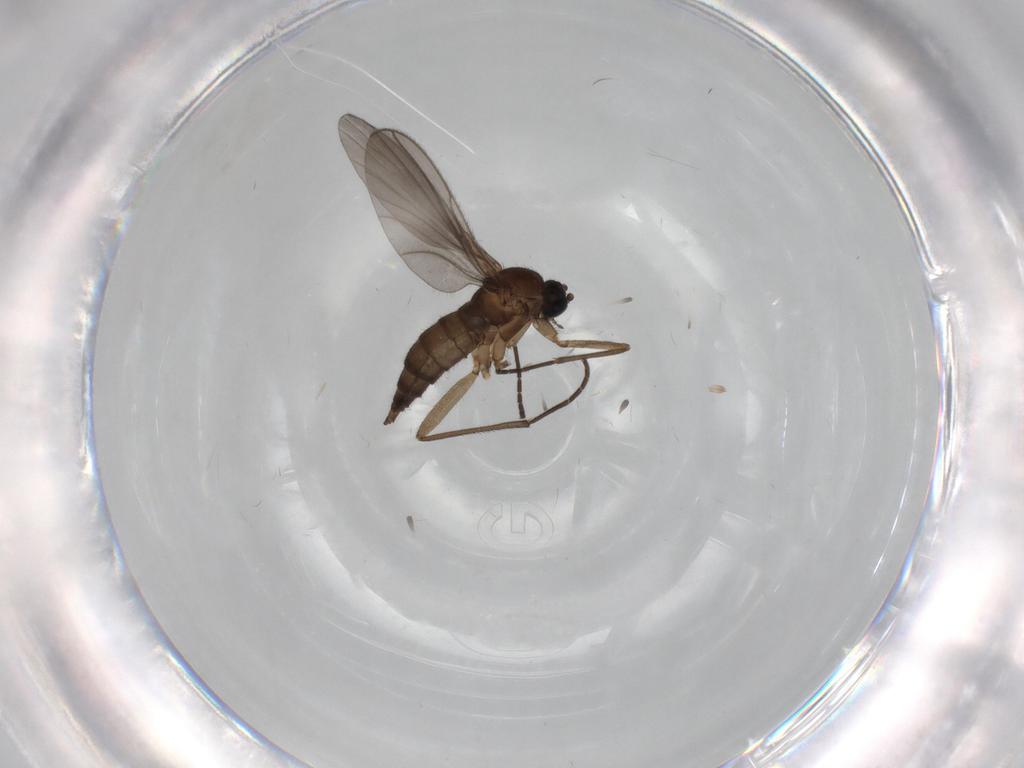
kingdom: Animalia
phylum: Arthropoda
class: Insecta
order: Diptera
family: Sciaridae
